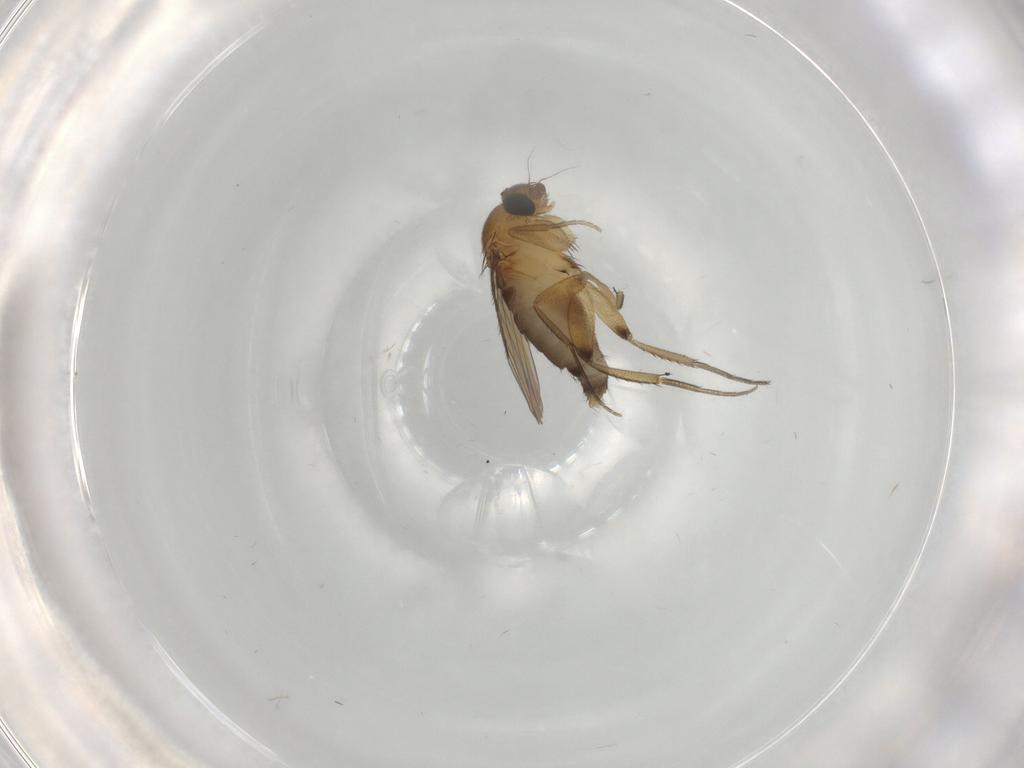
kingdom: Animalia
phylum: Arthropoda
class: Insecta
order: Diptera
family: Phoridae
